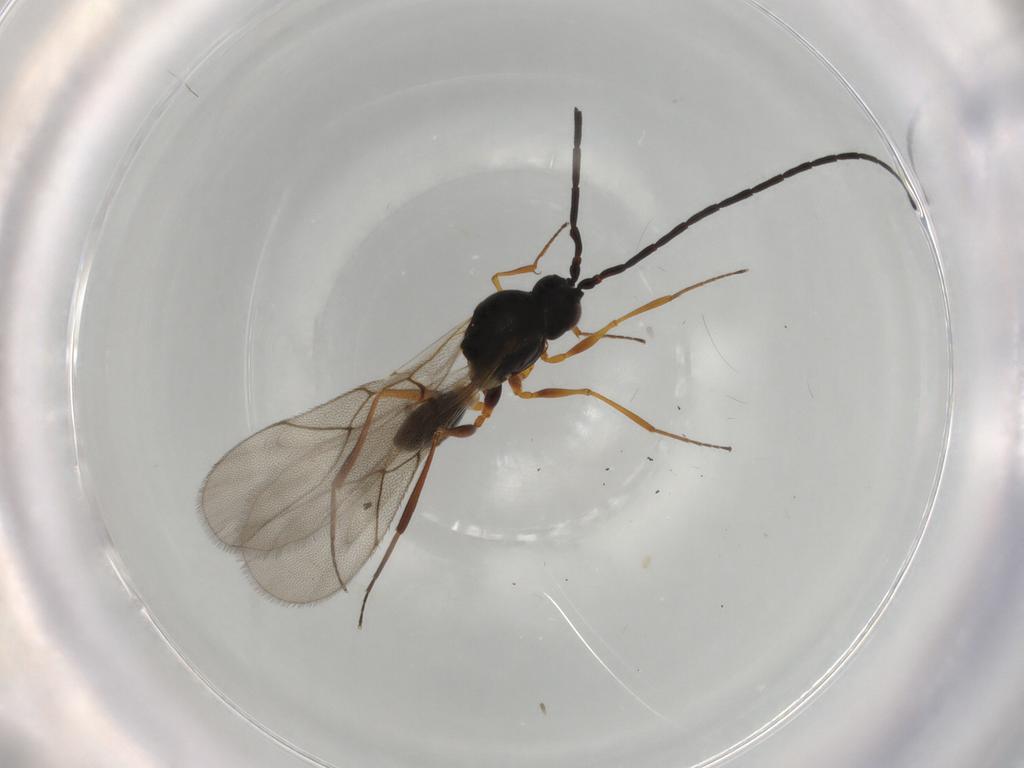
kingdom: Animalia
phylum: Arthropoda
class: Insecta
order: Hymenoptera
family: Figitidae
